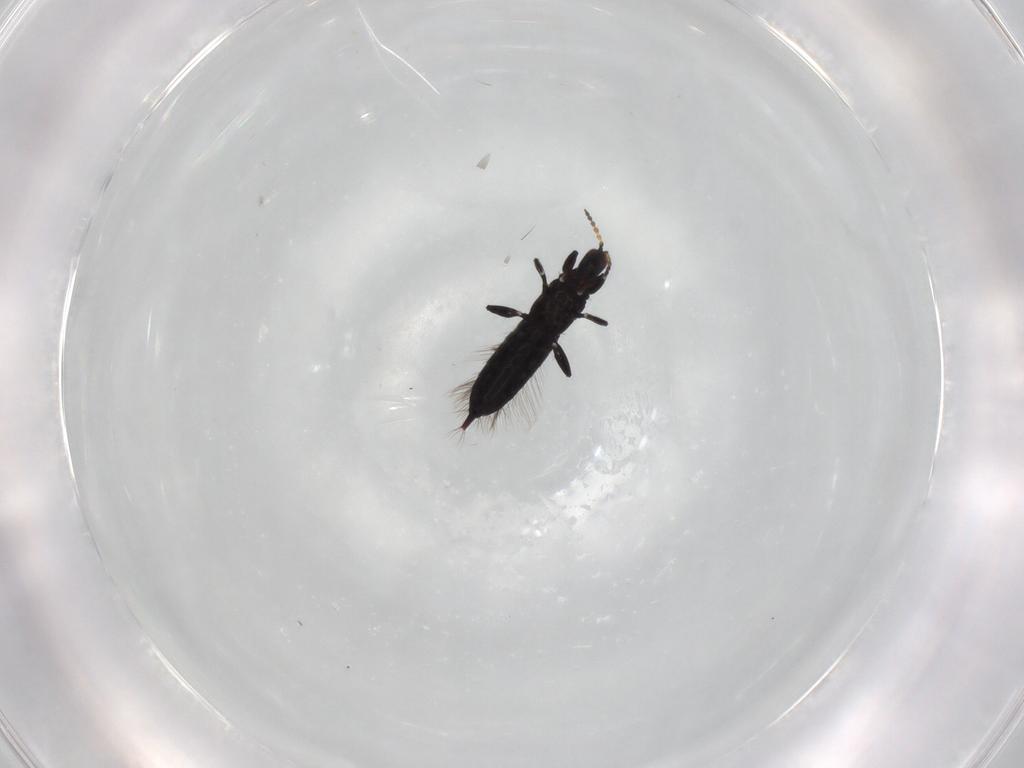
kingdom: Animalia
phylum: Arthropoda
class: Insecta
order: Thysanoptera
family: Phlaeothripidae
